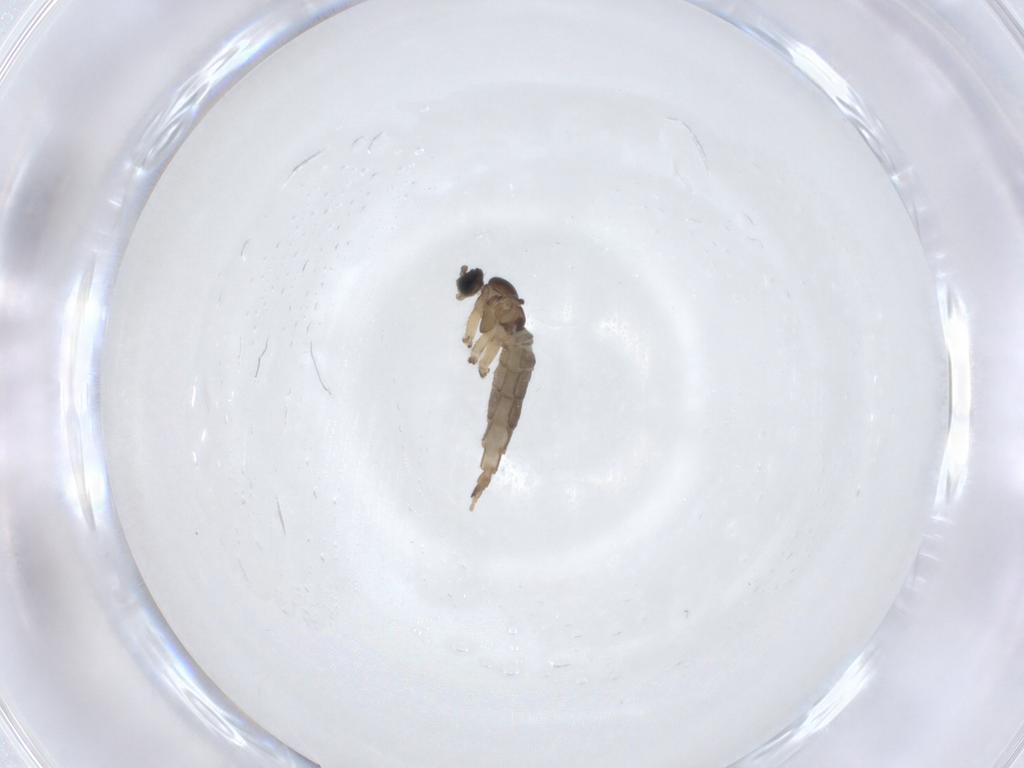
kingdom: Animalia
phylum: Arthropoda
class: Insecta
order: Diptera
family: Sciaridae
